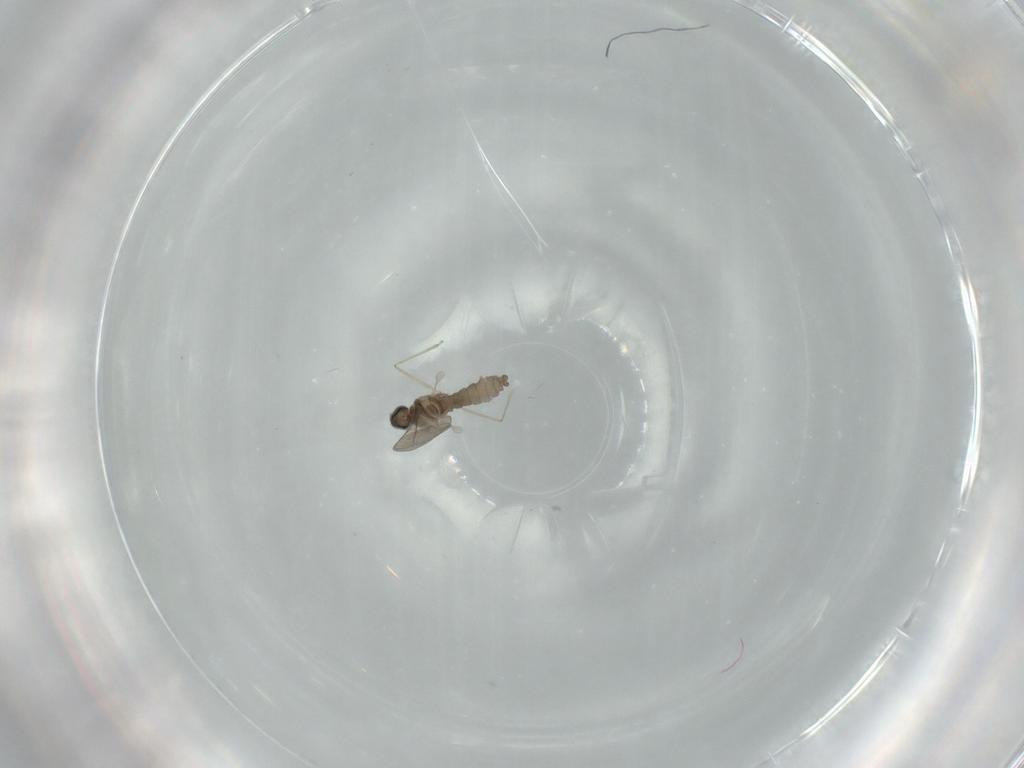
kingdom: Animalia
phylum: Arthropoda
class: Insecta
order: Diptera
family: Cecidomyiidae
